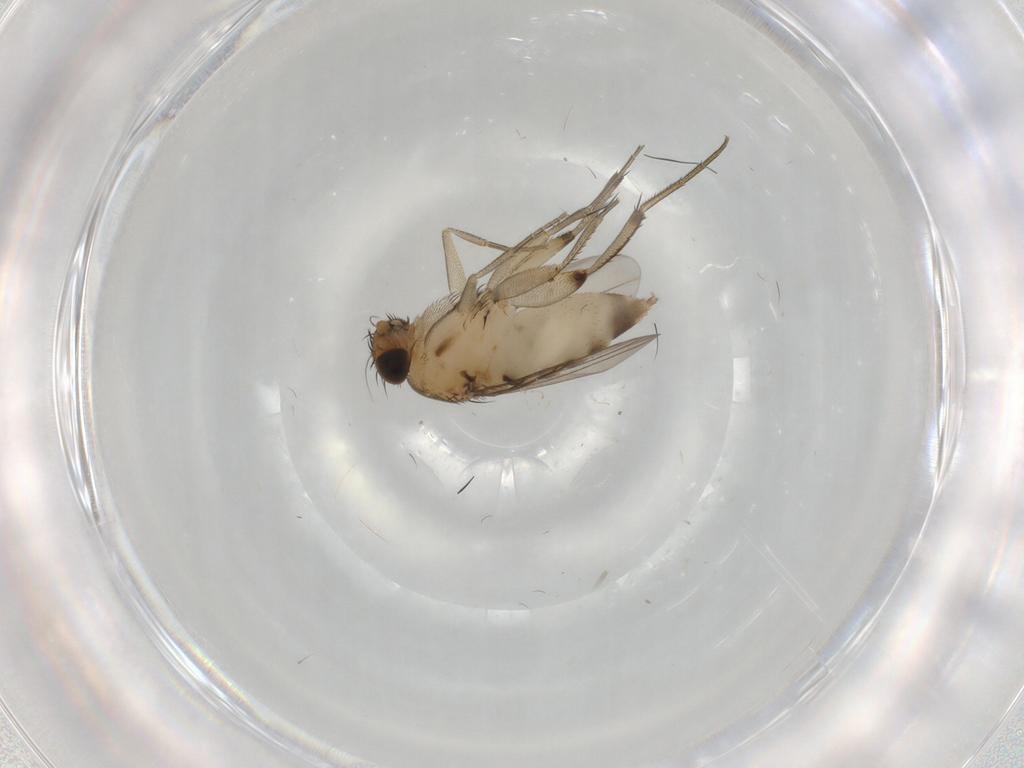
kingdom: Animalia
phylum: Arthropoda
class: Insecta
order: Diptera
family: Phoridae
